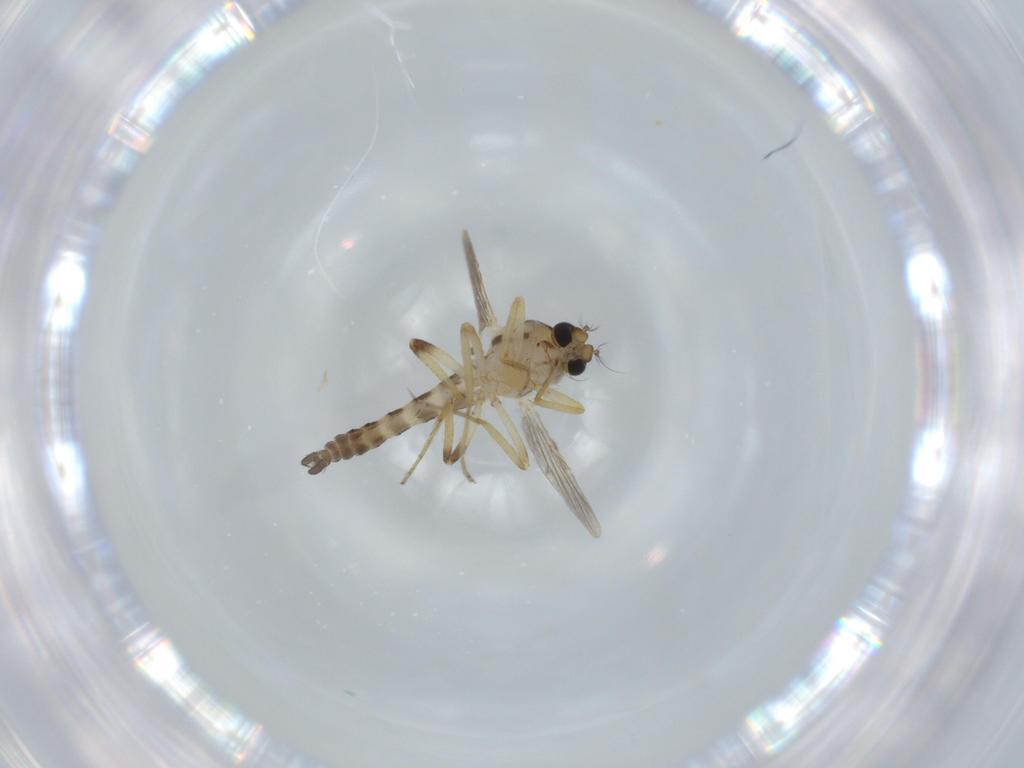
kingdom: Animalia
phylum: Arthropoda
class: Insecta
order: Diptera
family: Ceratopogonidae
